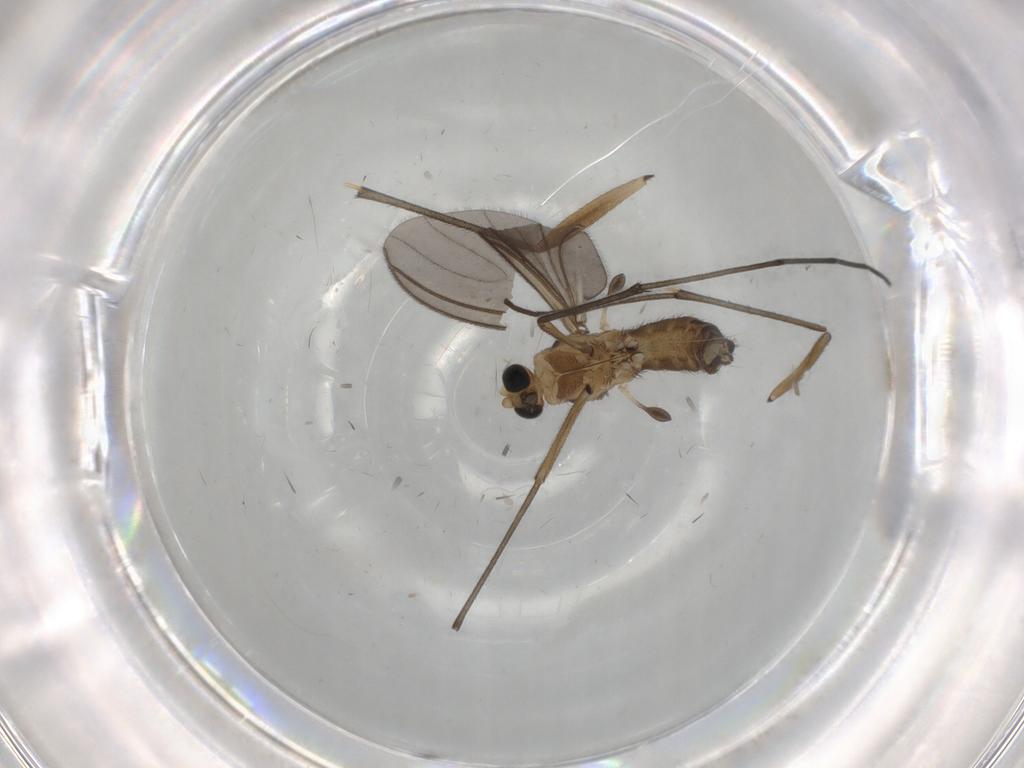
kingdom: Animalia
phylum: Arthropoda
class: Insecta
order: Diptera
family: Cecidomyiidae
